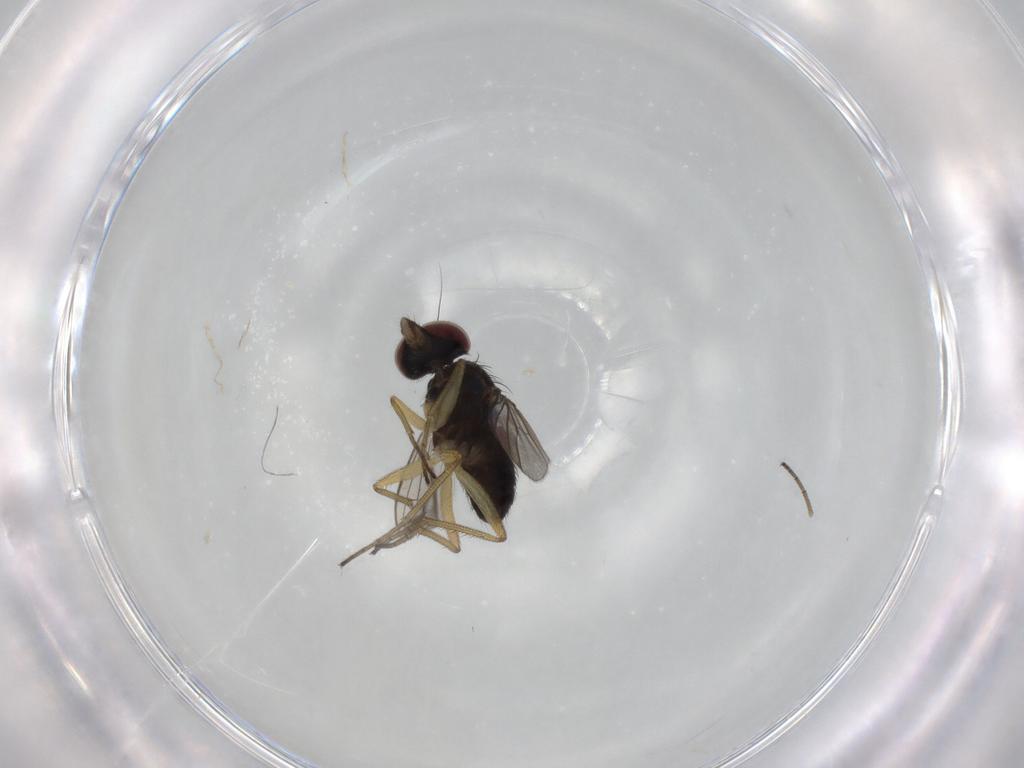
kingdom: Animalia
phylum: Arthropoda
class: Insecta
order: Diptera
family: Dolichopodidae
